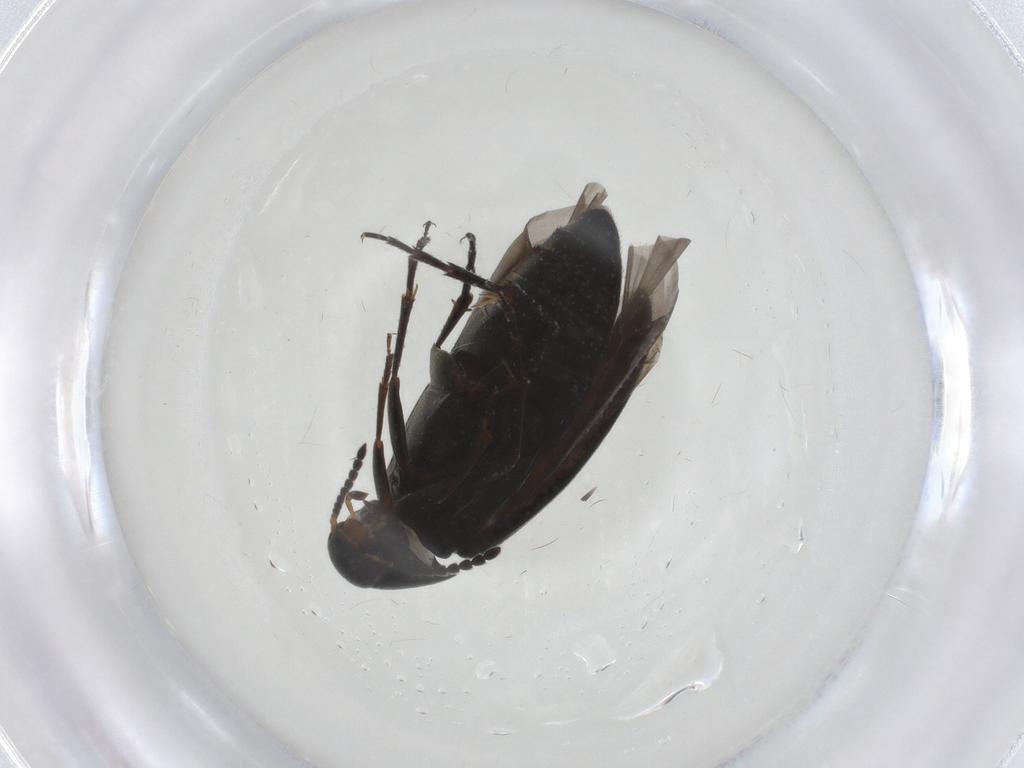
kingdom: Animalia
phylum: Arthropoda
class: Insecta
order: Coleoptera
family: Scraptiidae
